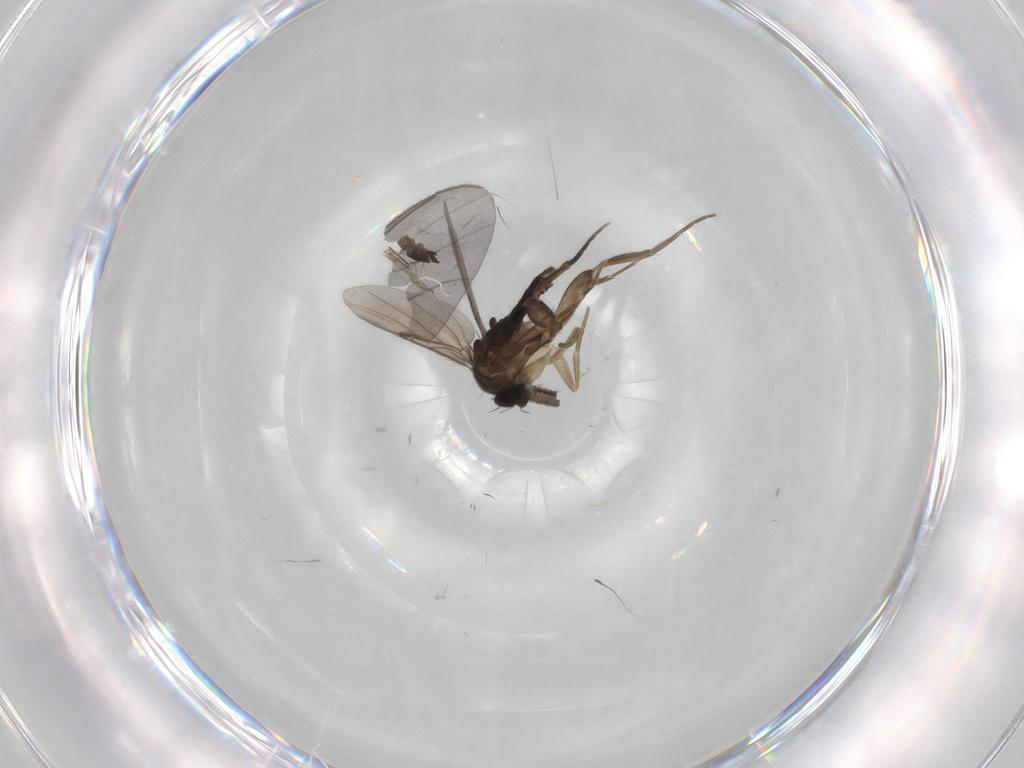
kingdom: Animalia
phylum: Arthropoda
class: Insecta
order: Diptera
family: Phoridae
